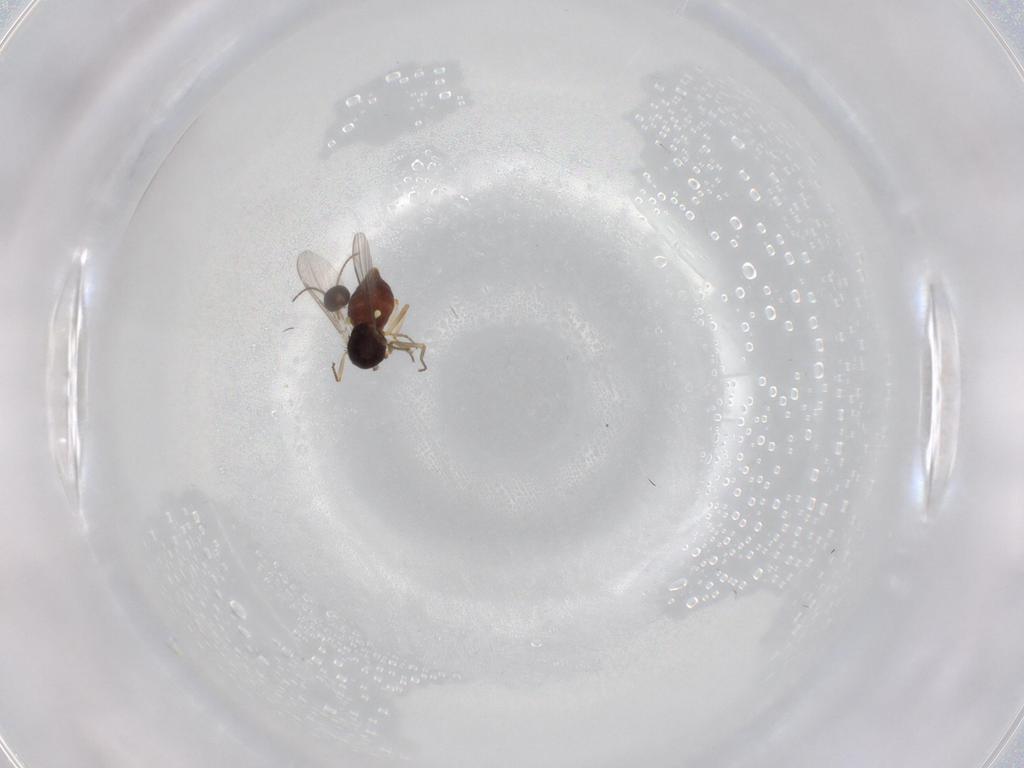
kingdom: Animalia
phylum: Arthropoda
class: Insecta
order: Diptera
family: Ceratopogonidae
